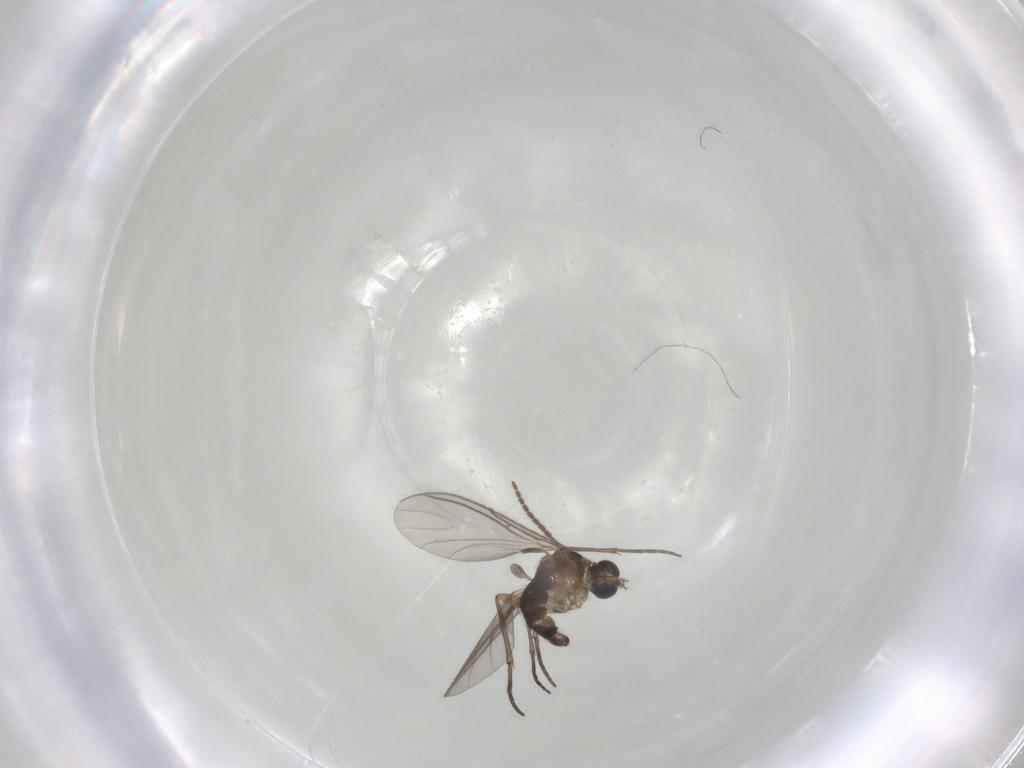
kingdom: Animalia
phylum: Arthropoda
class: Insecta
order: Diptera
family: Sciaridae
